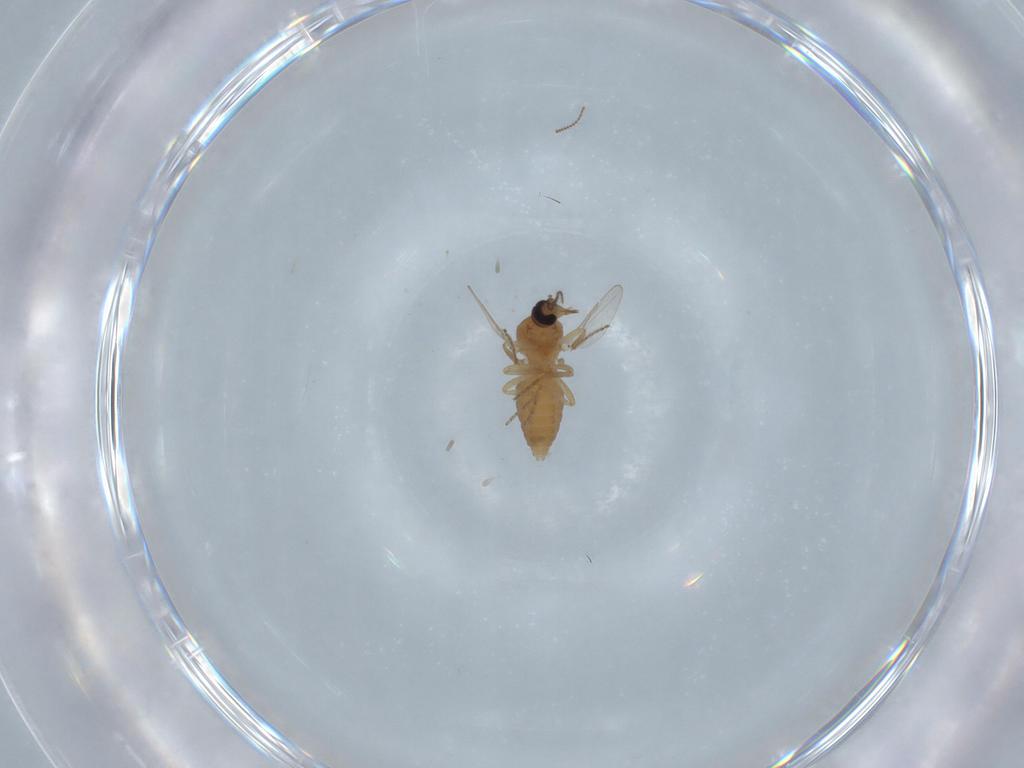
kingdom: Animalia
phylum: Arthropoda
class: Insecta
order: Diptera
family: Ceratopogonidae
